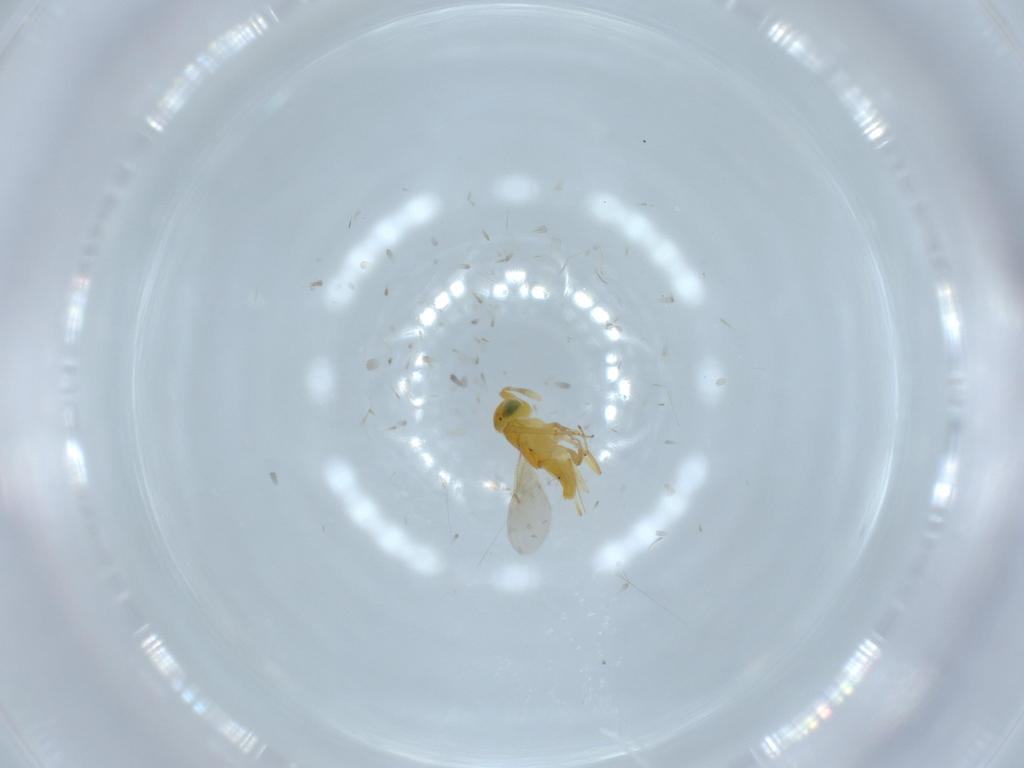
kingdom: Animalia
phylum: Arthropoda
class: Insecta
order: Hymenoptera
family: Encyrtidae
